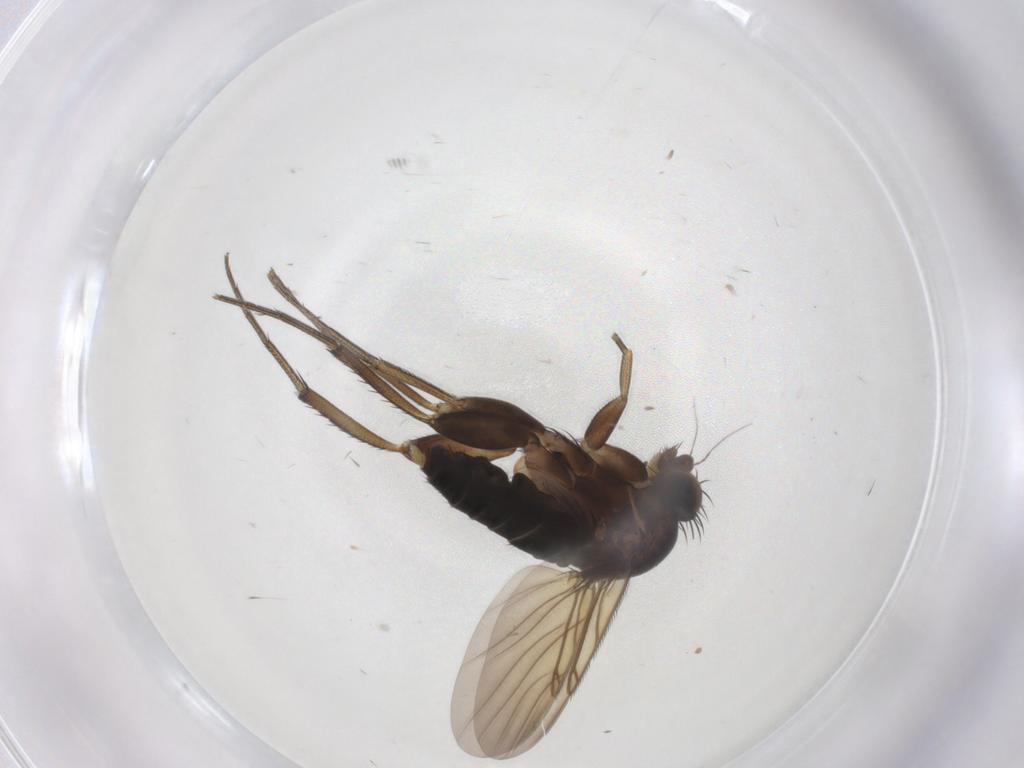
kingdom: Animalia
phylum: Arthropoda
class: Insecta
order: Diptera
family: Phoridae
